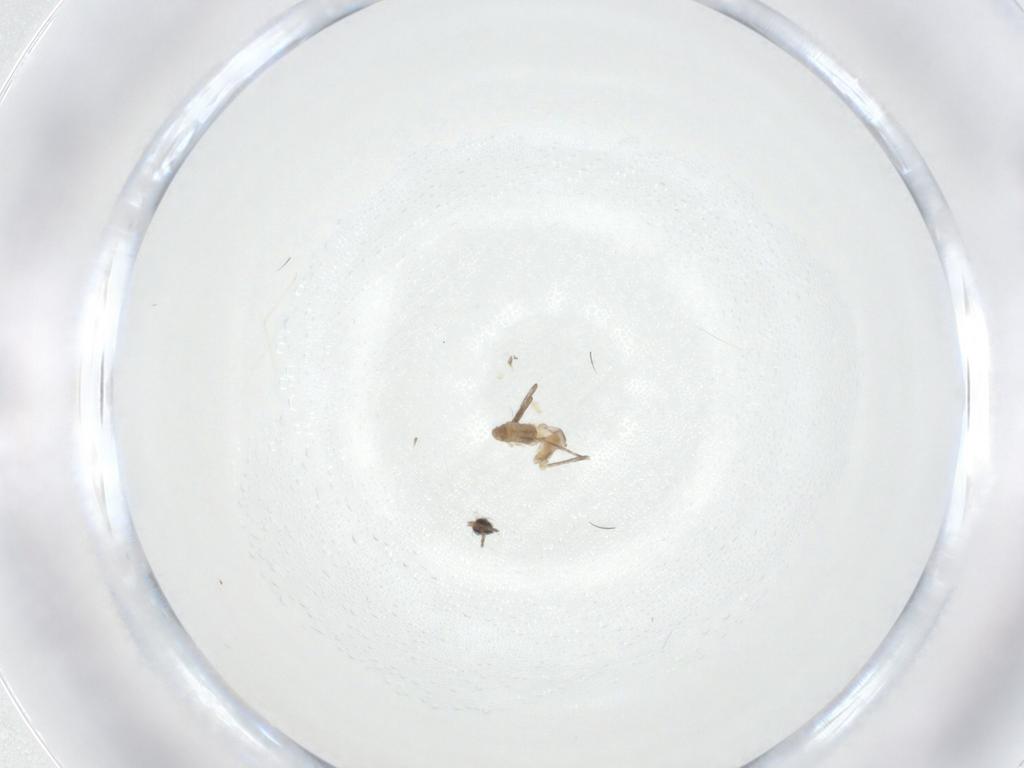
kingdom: Animalia
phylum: Arthropoda
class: Insecta
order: Diptera
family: Cecidomyiidae
